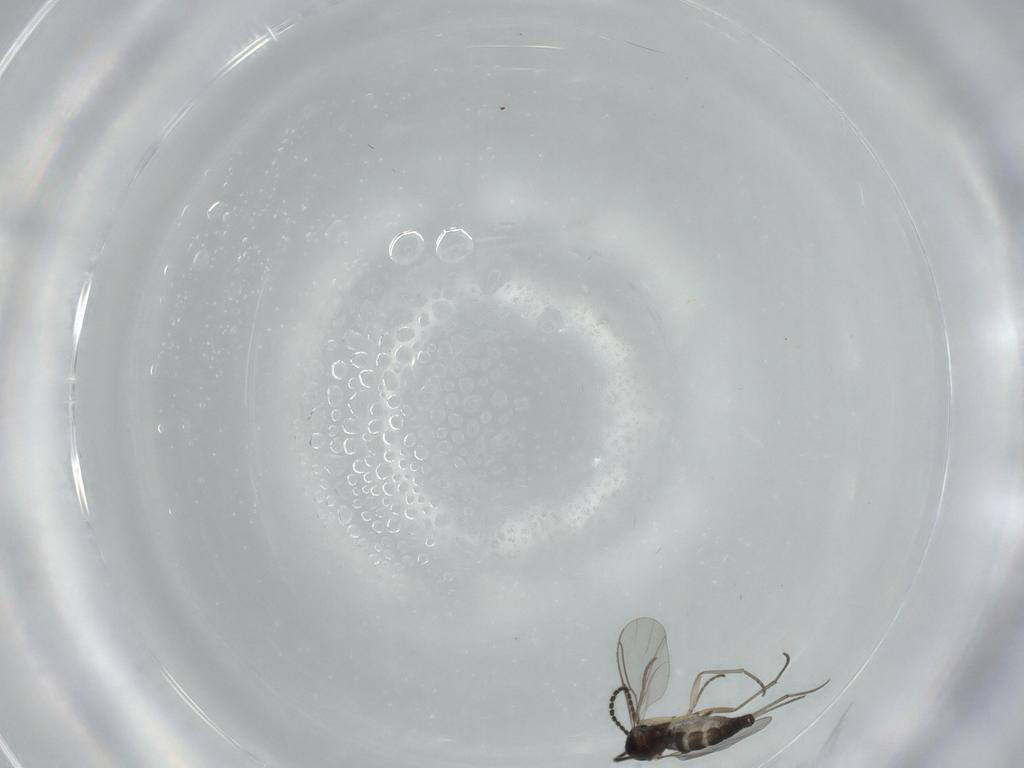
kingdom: Animalia
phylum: Arthropoda
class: Insecta
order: Diptera
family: Sciaridae
